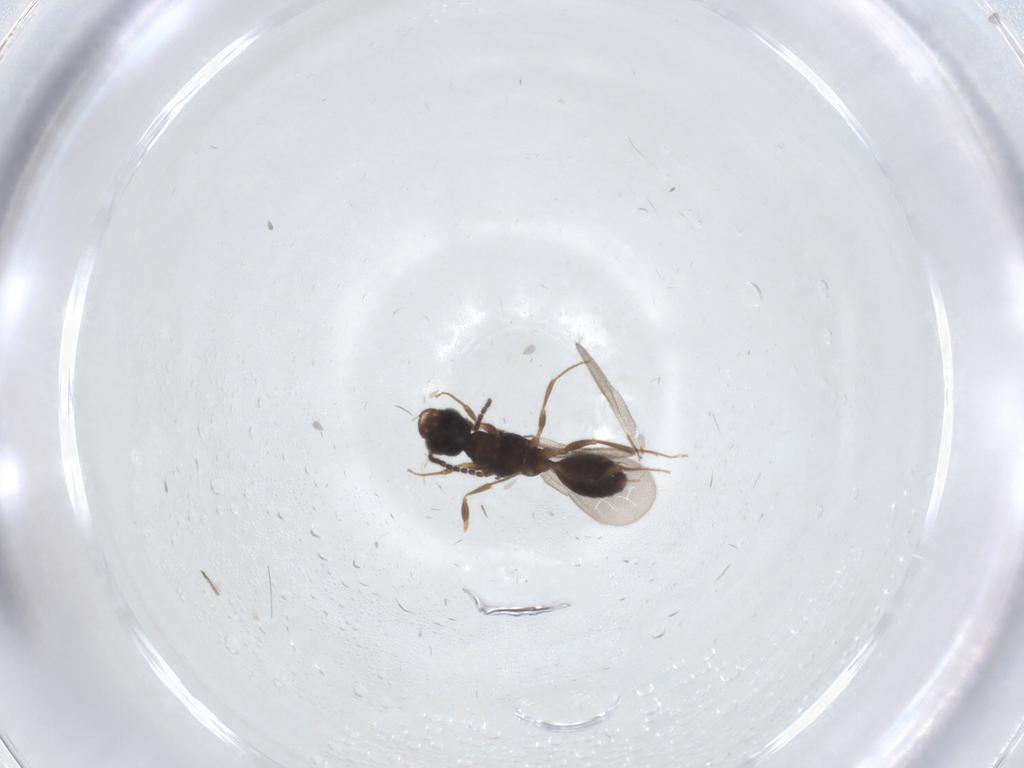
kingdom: Animalia
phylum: Arthropoda
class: Insecta
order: Hymenoptera
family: Bethylidae
